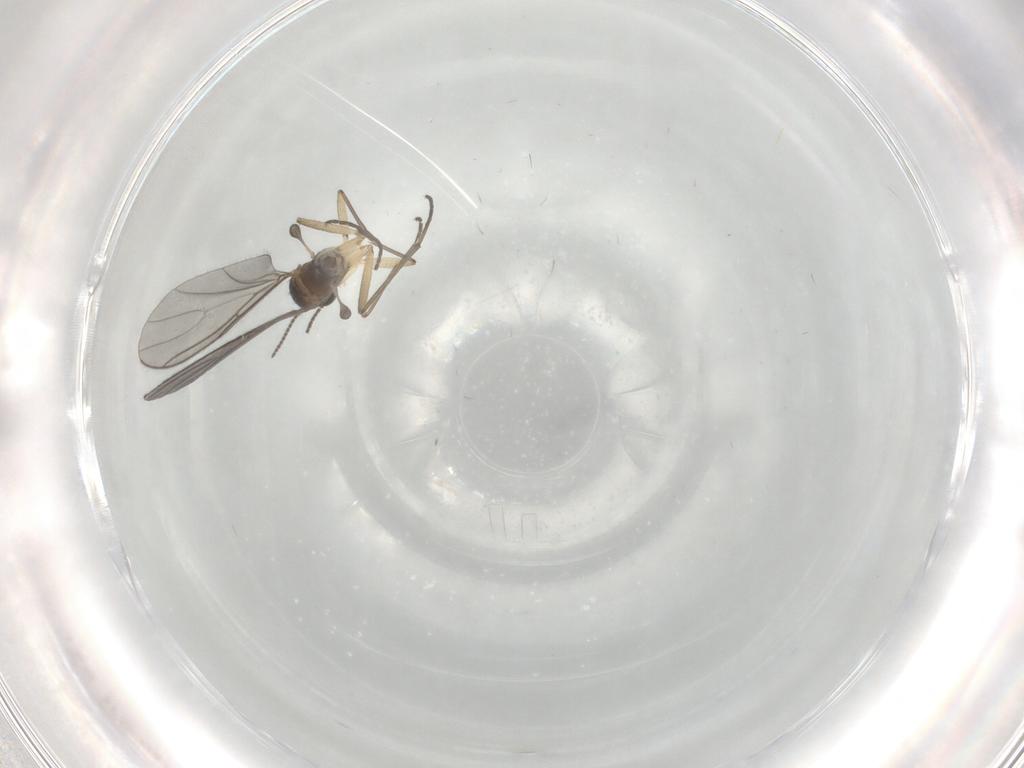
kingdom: Animalia
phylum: Arthropoda
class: Insecta
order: Diptera
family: Sciaridae
